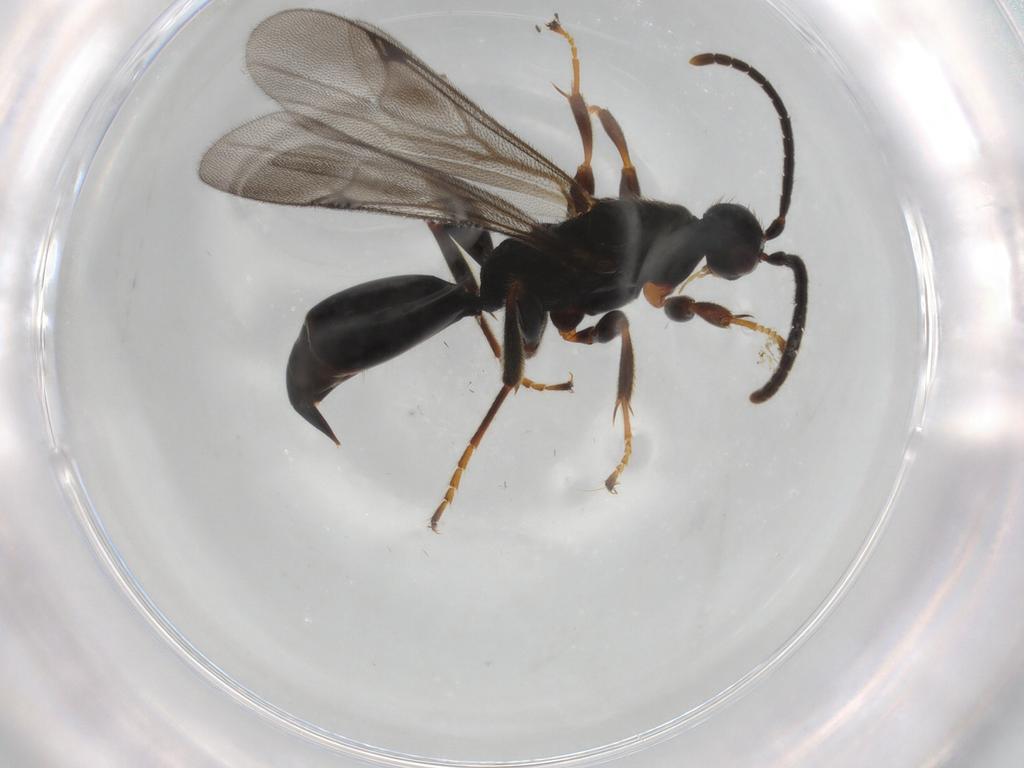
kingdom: Animalia
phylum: Arthropoda
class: Insecta
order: Hymenoptera
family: Proctotrupidae
